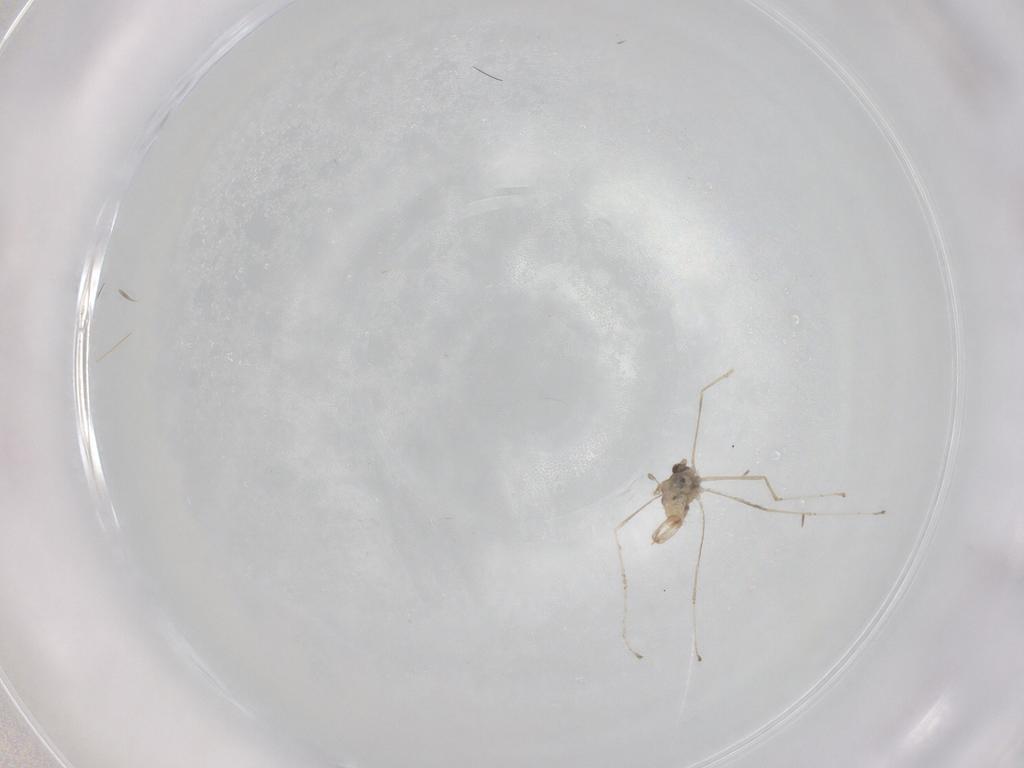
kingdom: Animalia
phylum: Arthropoda
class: Insecta
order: Diptera
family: Cecidomyiidae
